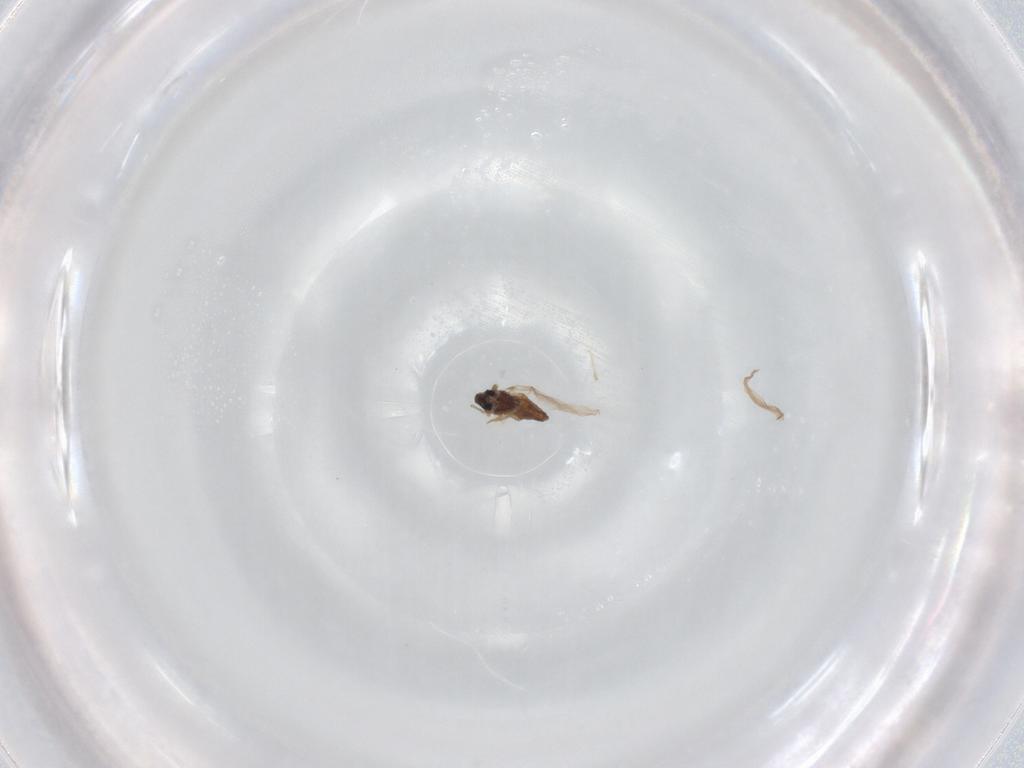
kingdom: Animalia
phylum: Arthropoda
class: Insecta
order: Diptera
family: Chironomidae
